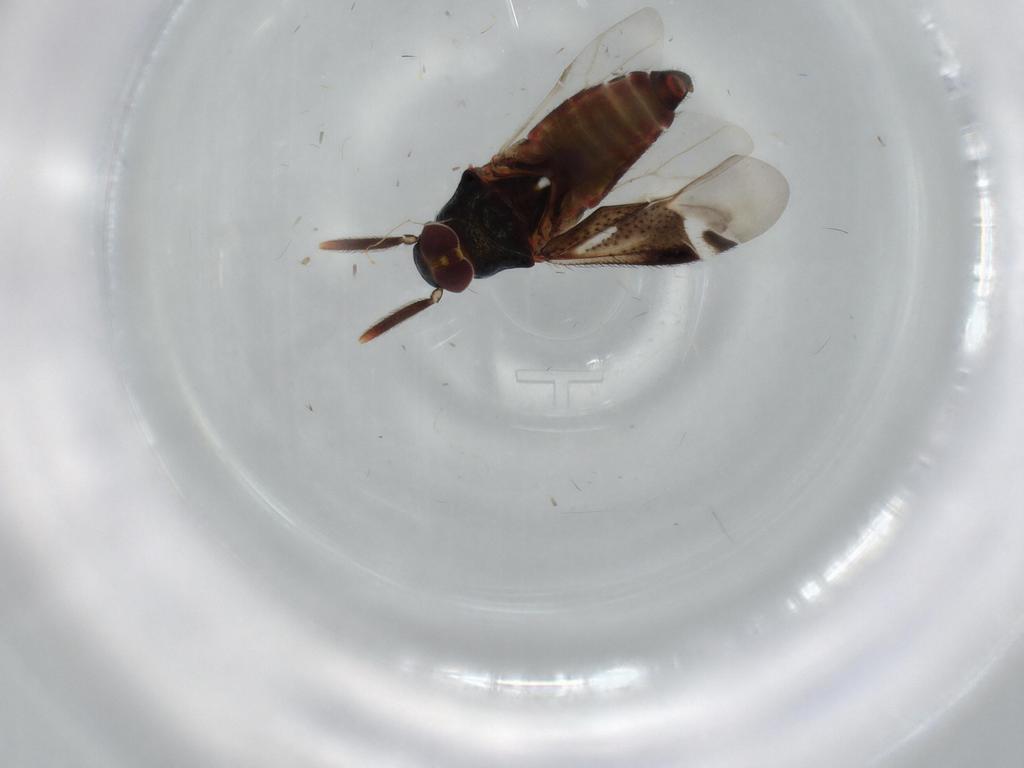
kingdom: Animalia
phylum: Arthropoda
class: Insecta
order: Hemiptera
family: Miridae
